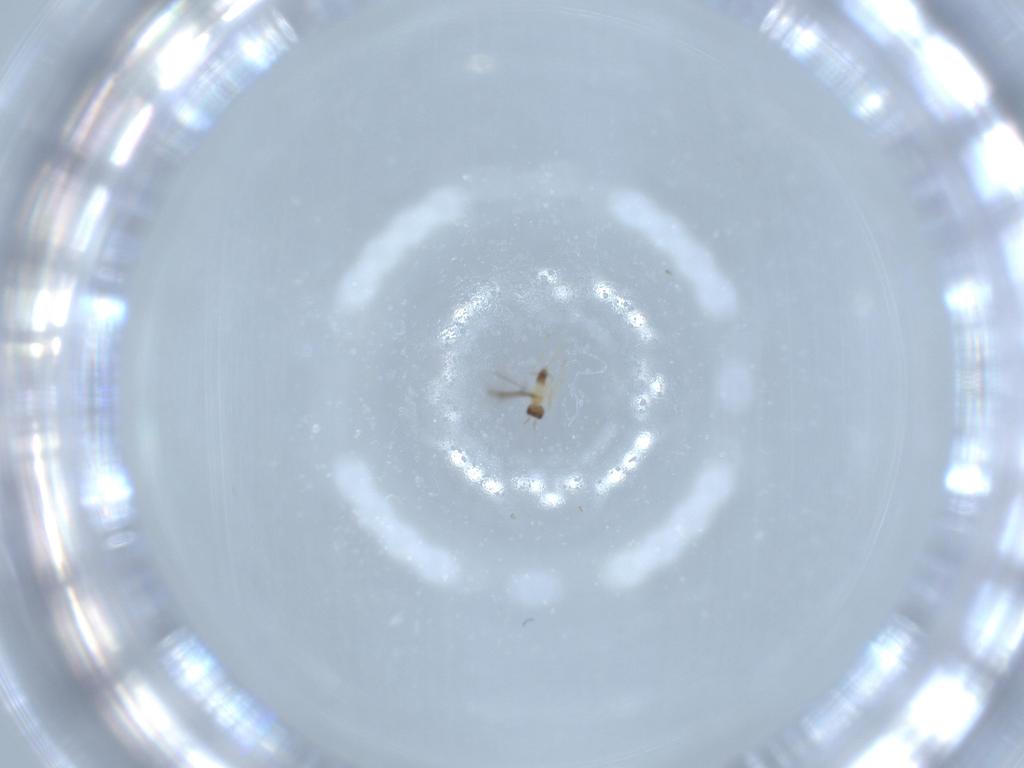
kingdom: Animalia
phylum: Arthropoda
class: Insecta
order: Hymenoptera
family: Mymaridae
